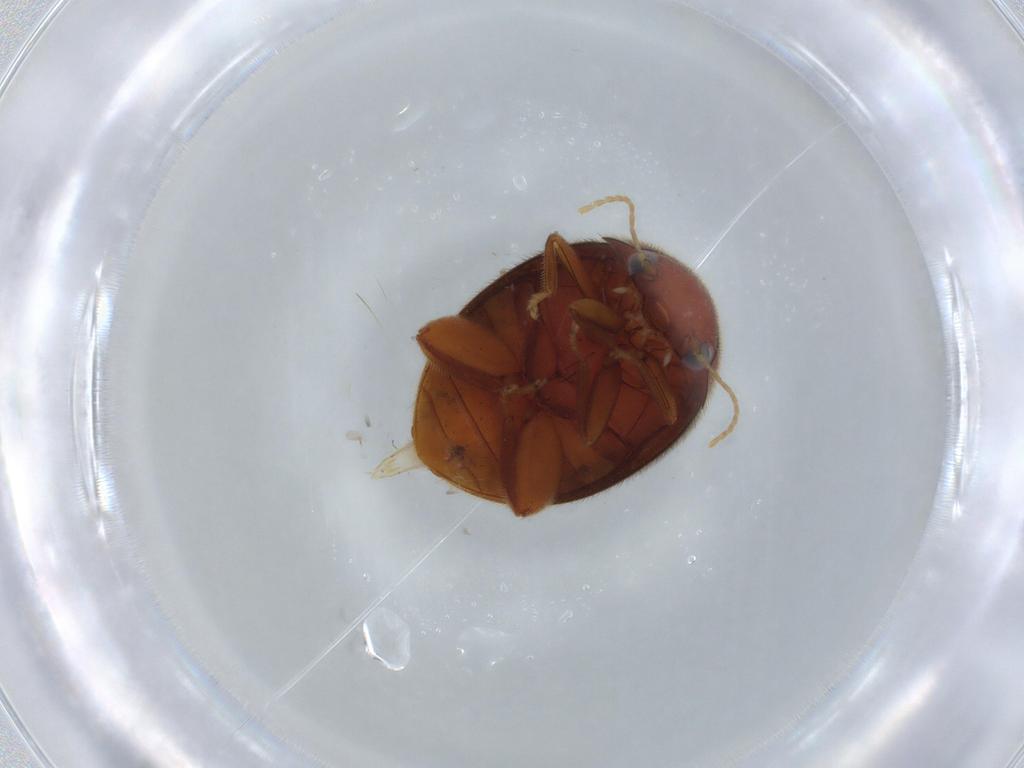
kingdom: Animalia
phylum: Arthropoda
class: Insecta
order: Coleoptera
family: Scirtidae
